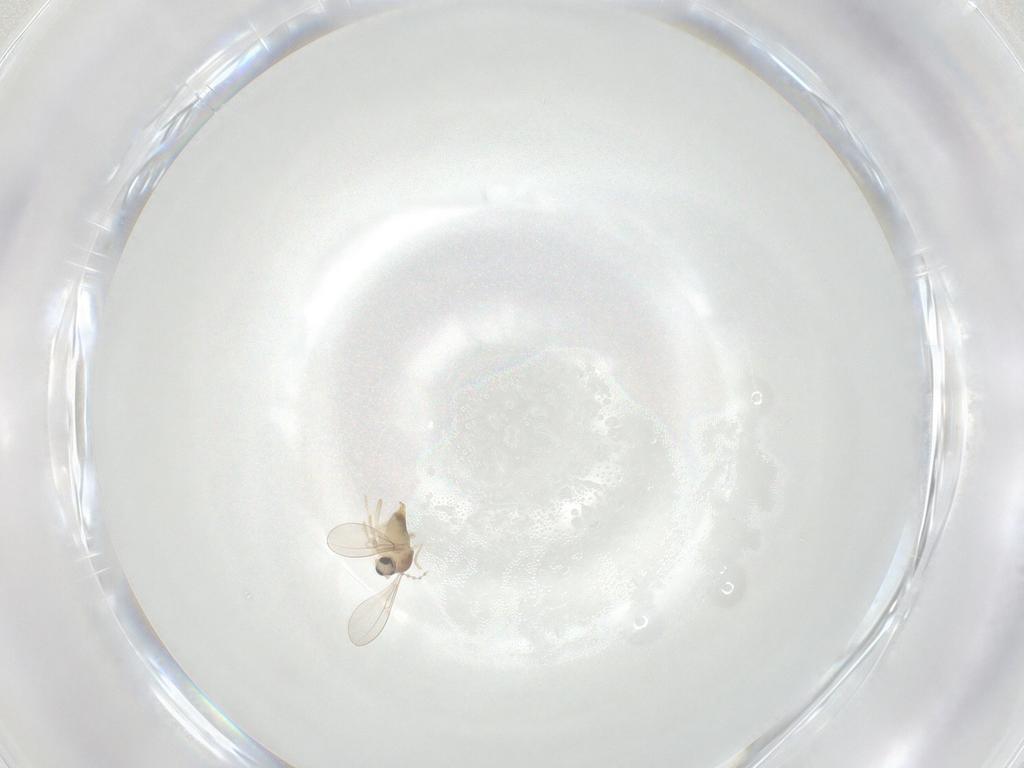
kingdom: Animalia
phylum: Arthropoda
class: Insecta
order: Diptera
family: Cecidomyiidae
